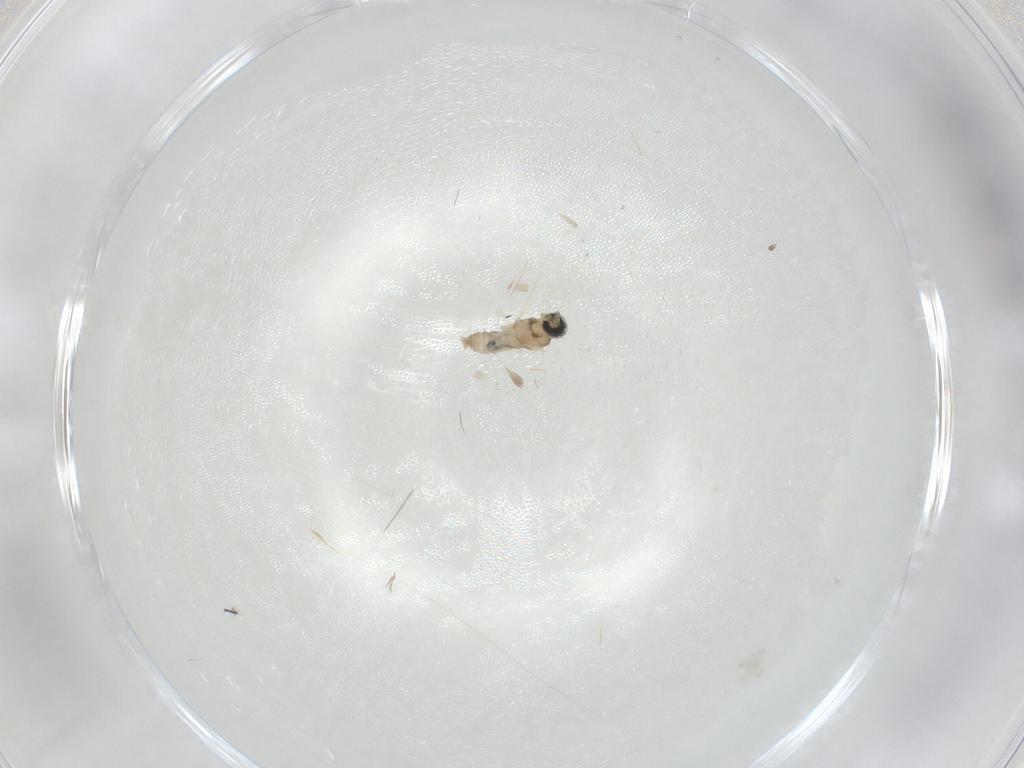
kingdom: Animalia
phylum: Arthropoda
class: Insecta
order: Diptera
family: Cecidomyiidae
